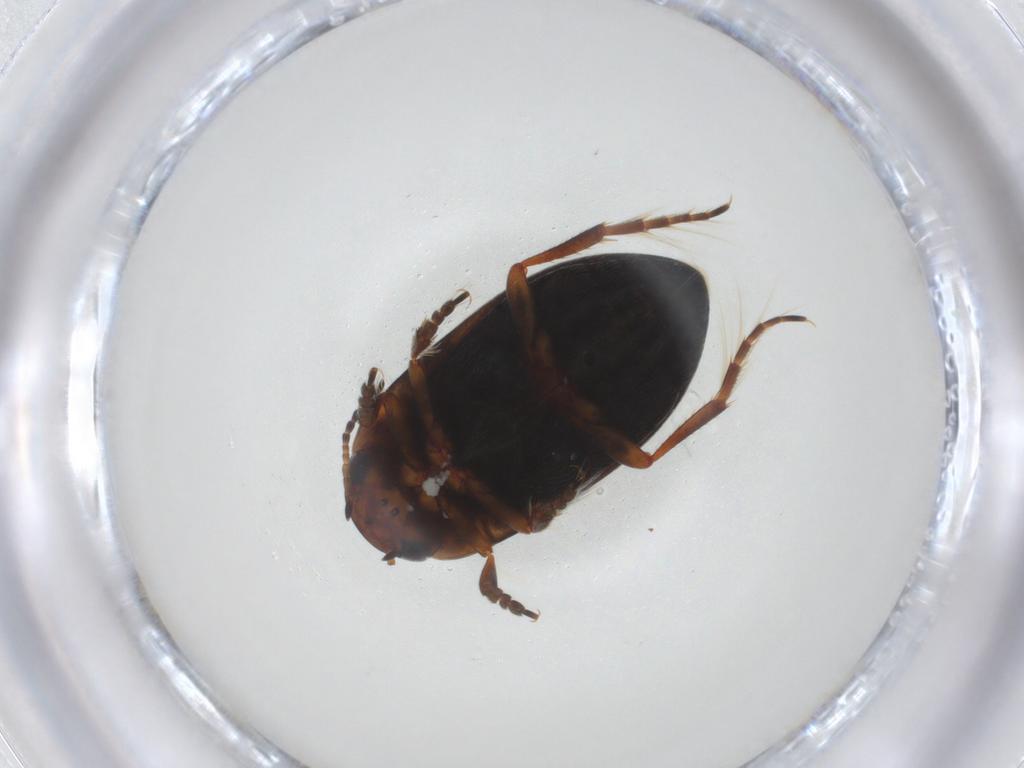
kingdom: Animalia
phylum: Arthropoda
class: Insecta
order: Coleoptera
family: Dytiscidae
